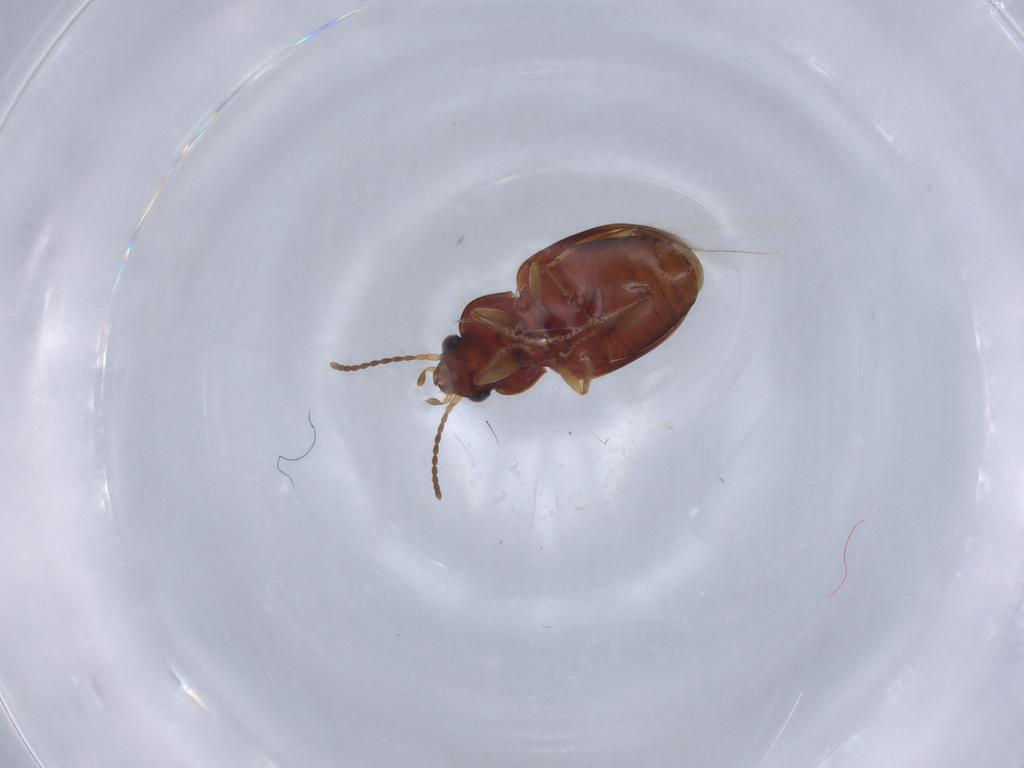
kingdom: Animalia
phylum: Arthropoda
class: Insecta
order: Coleoptera
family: Carabidae
